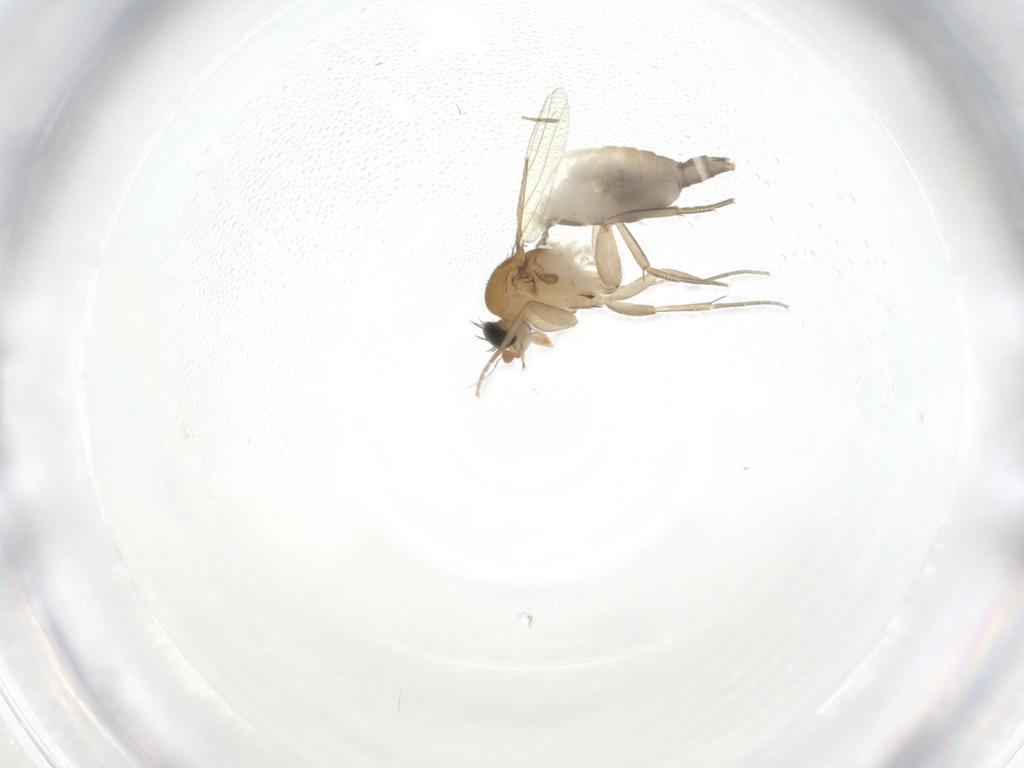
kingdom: Animalia
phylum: Arthropoda
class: Insecta
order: Diptera
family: Phoridae
